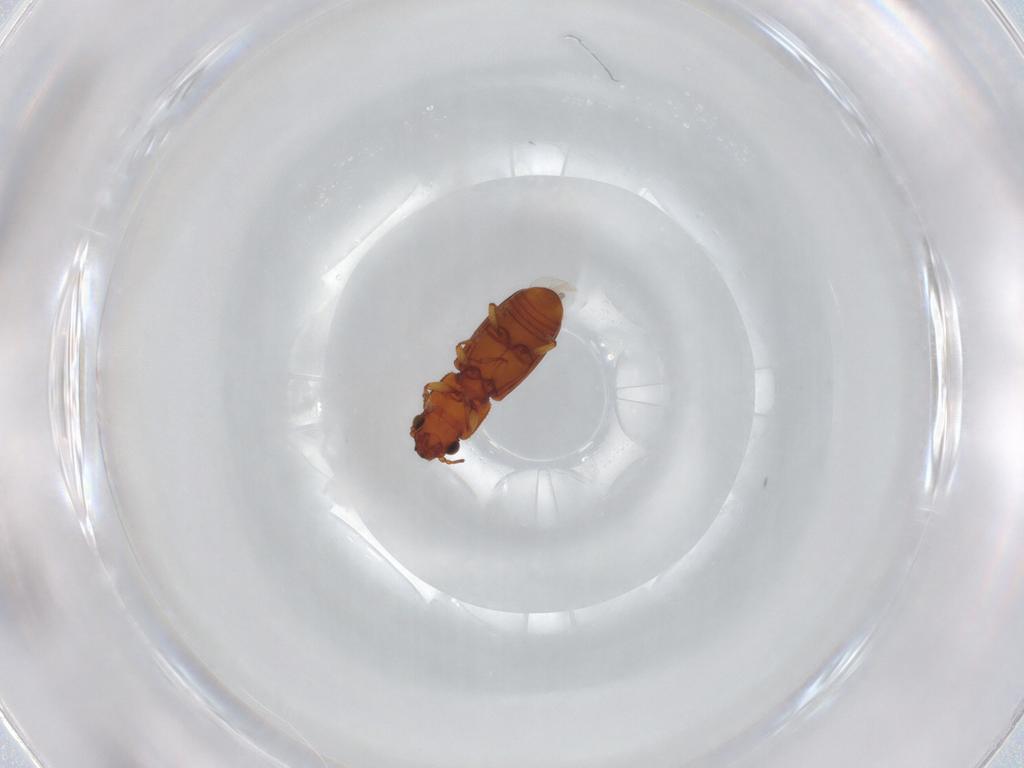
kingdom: Animalia
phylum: Arthropoda
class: Insecta
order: Coleoptera
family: Monotomidae
